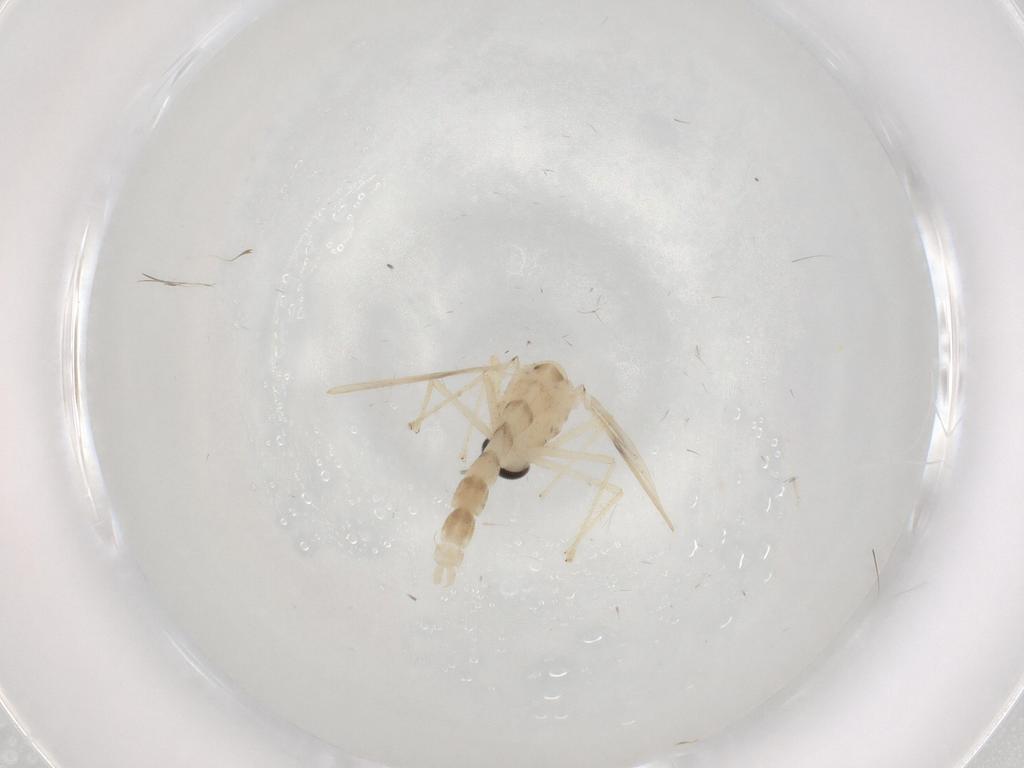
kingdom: Animalia
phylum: Arthropoda
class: Insecta
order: Diptera
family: Chironomidae
